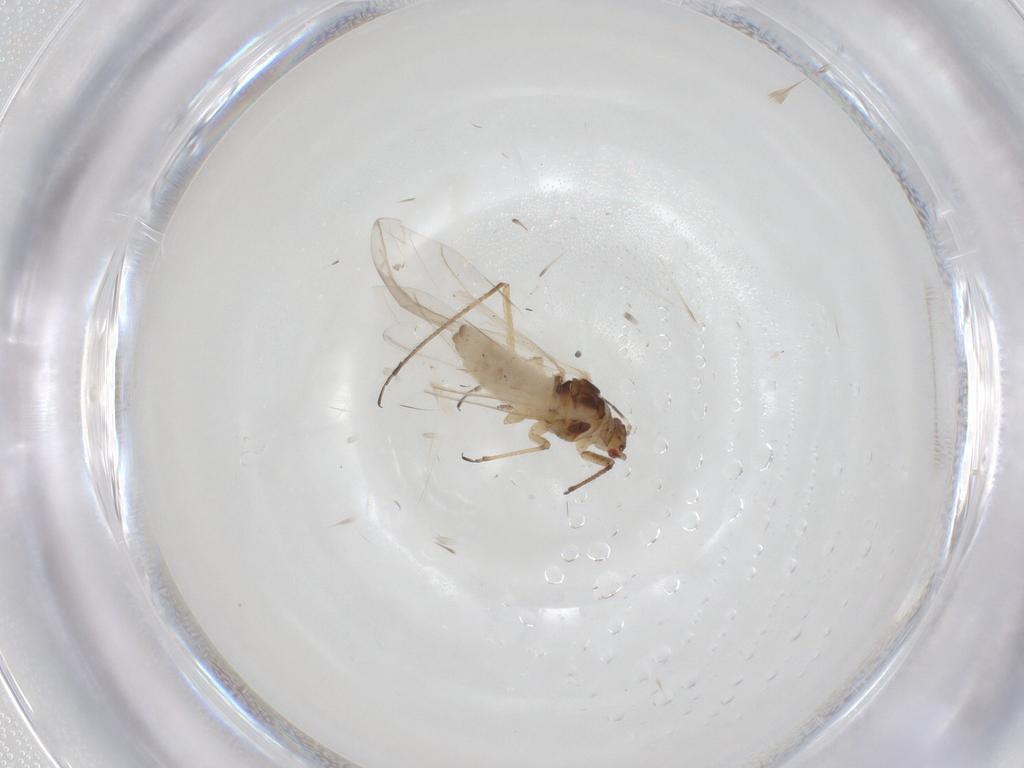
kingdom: Animalia
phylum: Arthropoda
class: Insecta
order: Hemiptera
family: Lachnidae
